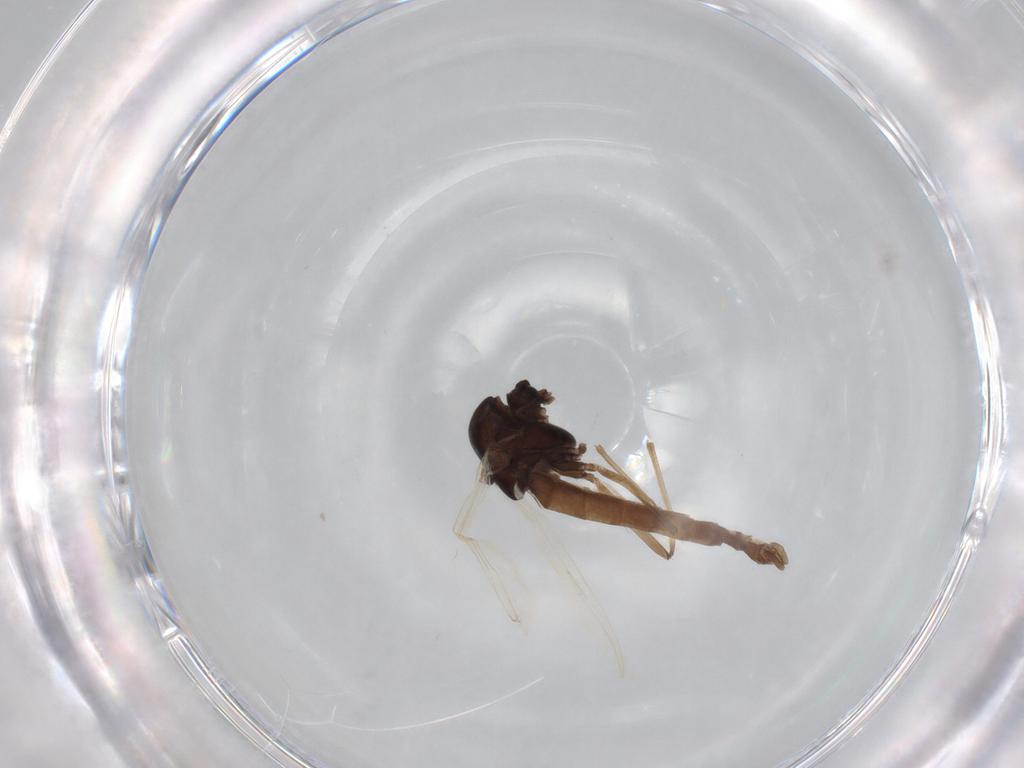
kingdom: Animalia
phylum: Arthropoda
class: Insecta
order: Diptera
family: Chironomidae
